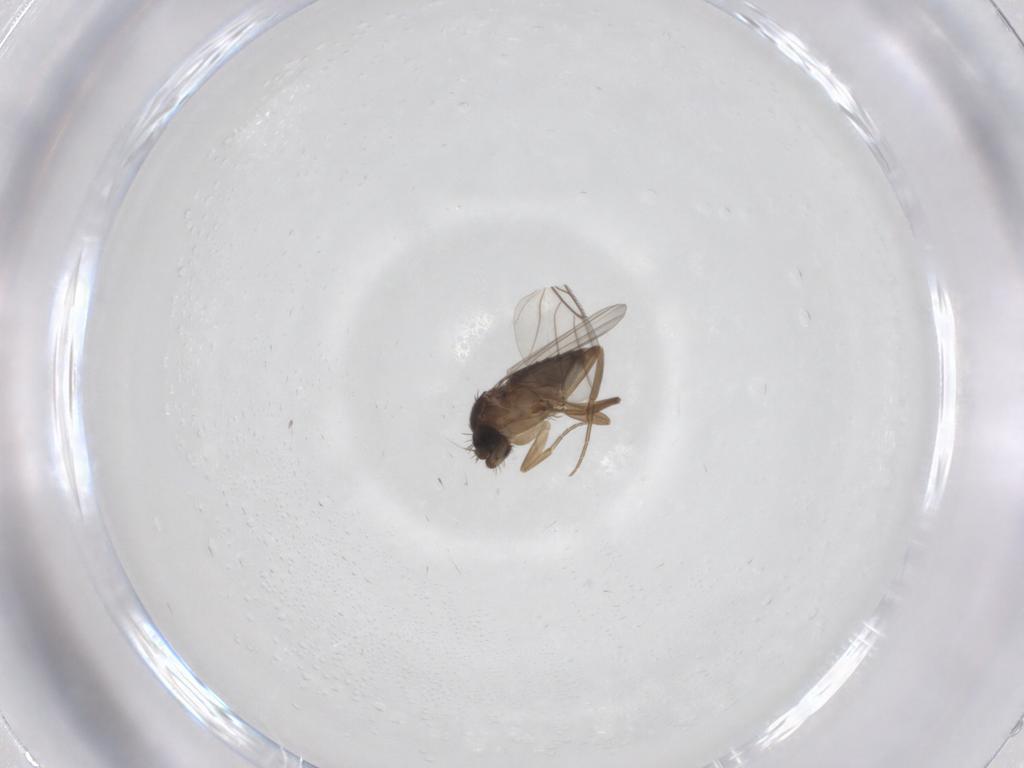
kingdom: Animalia
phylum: Arthropoda
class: Insecta
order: Diptera
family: Phoridae
